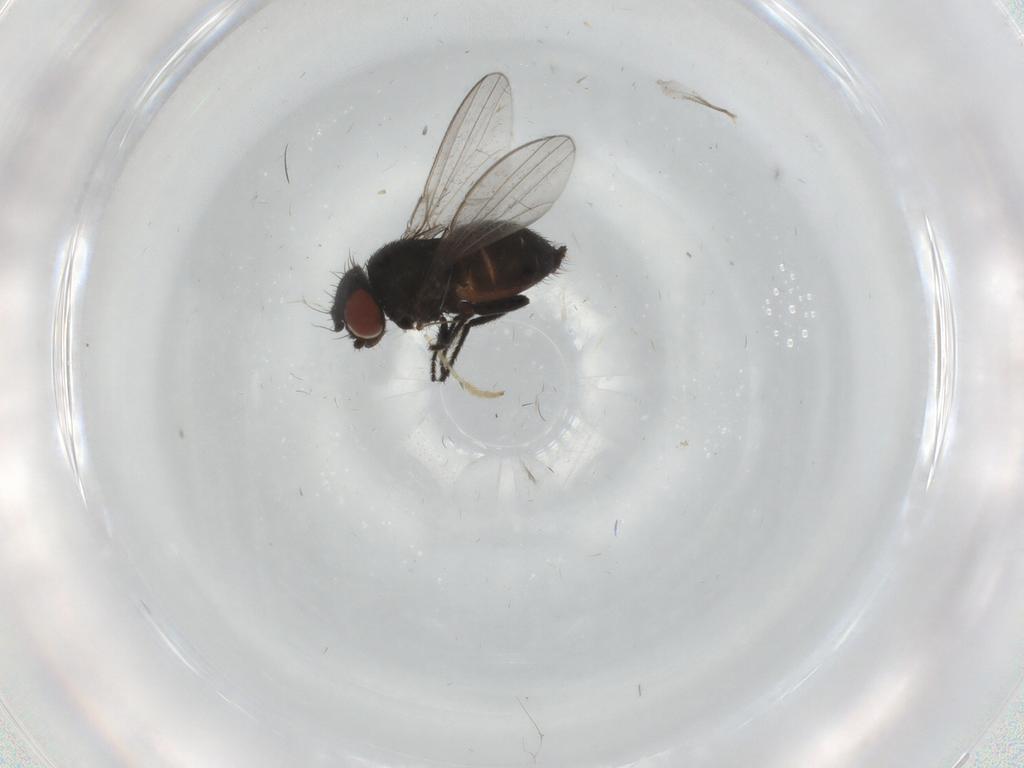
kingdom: Animalia
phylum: Arthropoda
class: Insecta
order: Diptera
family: Milichiidae
